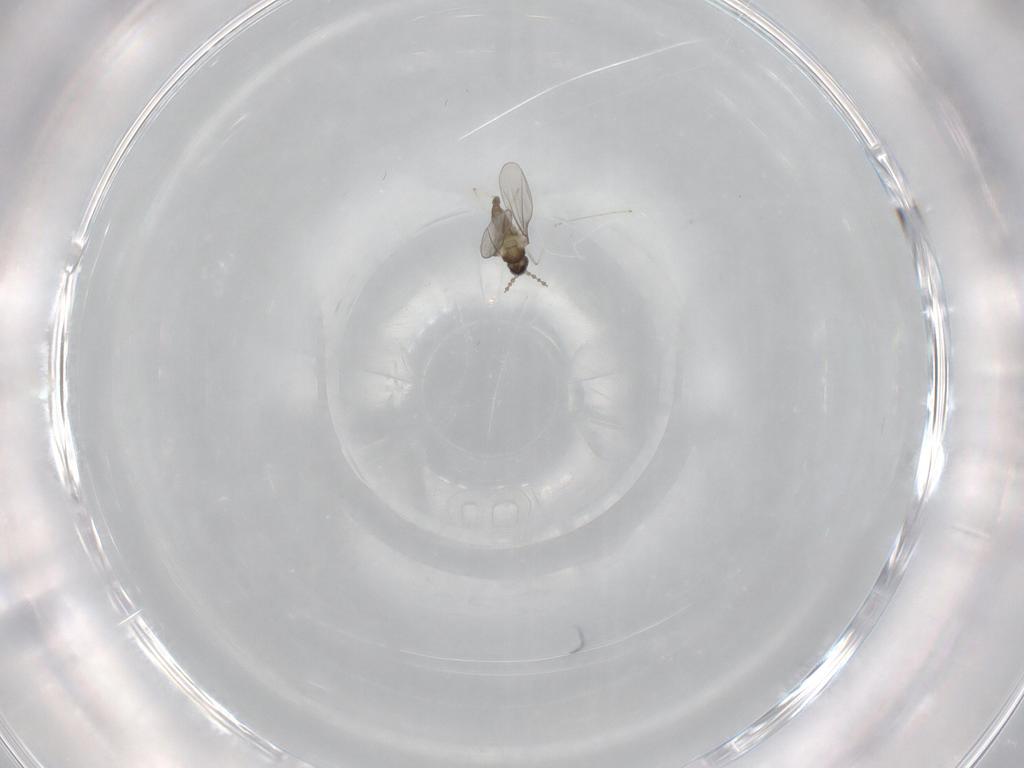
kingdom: Animalia
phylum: Arthropoda
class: Insecta
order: Diptera
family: Cecidomyiidae
